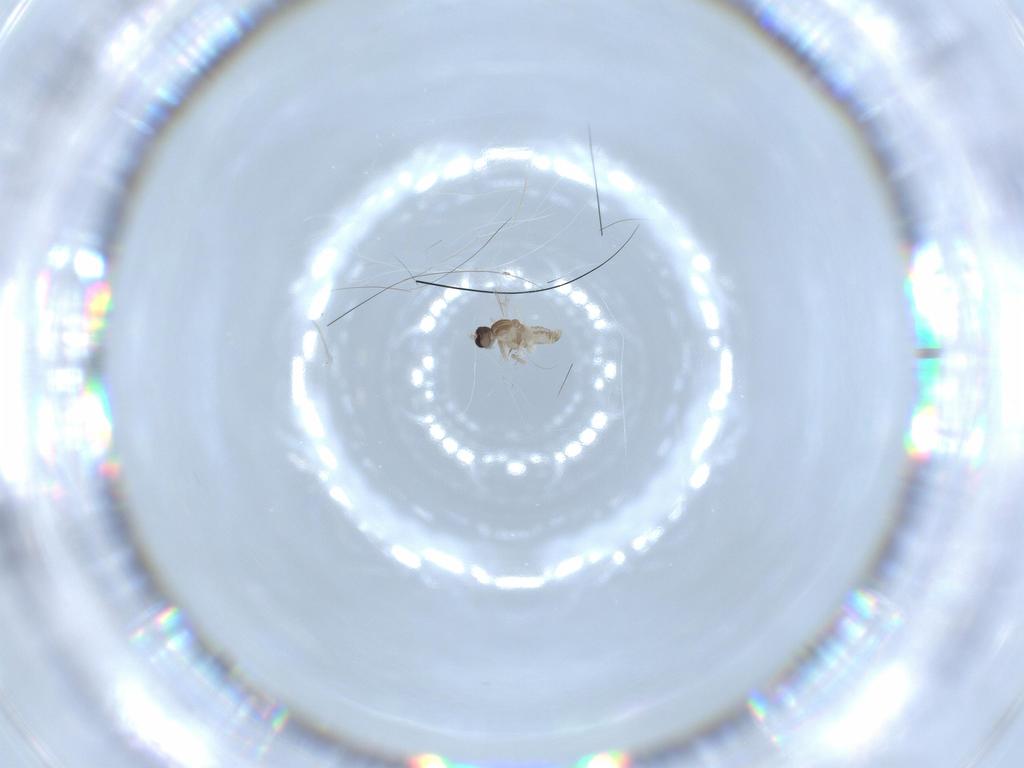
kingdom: Animalia
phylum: Arthropoda
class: Insecta
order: Diptera
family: Cecidomyiidae
